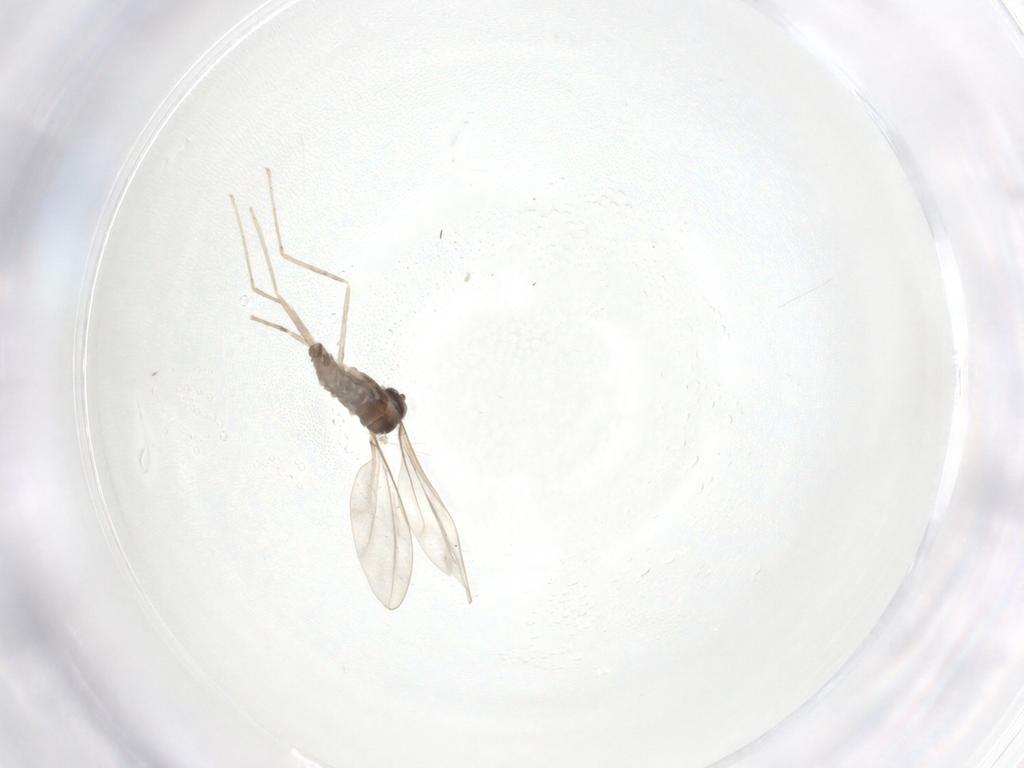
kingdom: Animalia
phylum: Arthropoda
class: Insecta
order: Diptera
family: Cecidomyiidae
